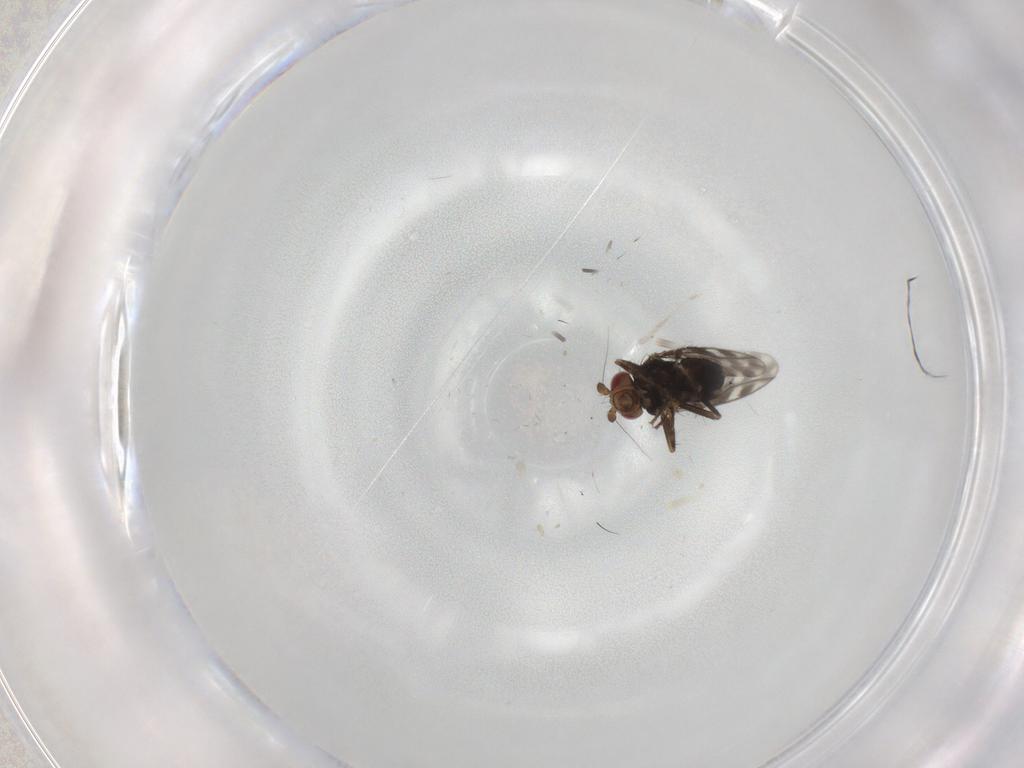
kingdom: Animalia
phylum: Arthropoda
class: Insecta
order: Diptera
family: Sphaeroceridae
